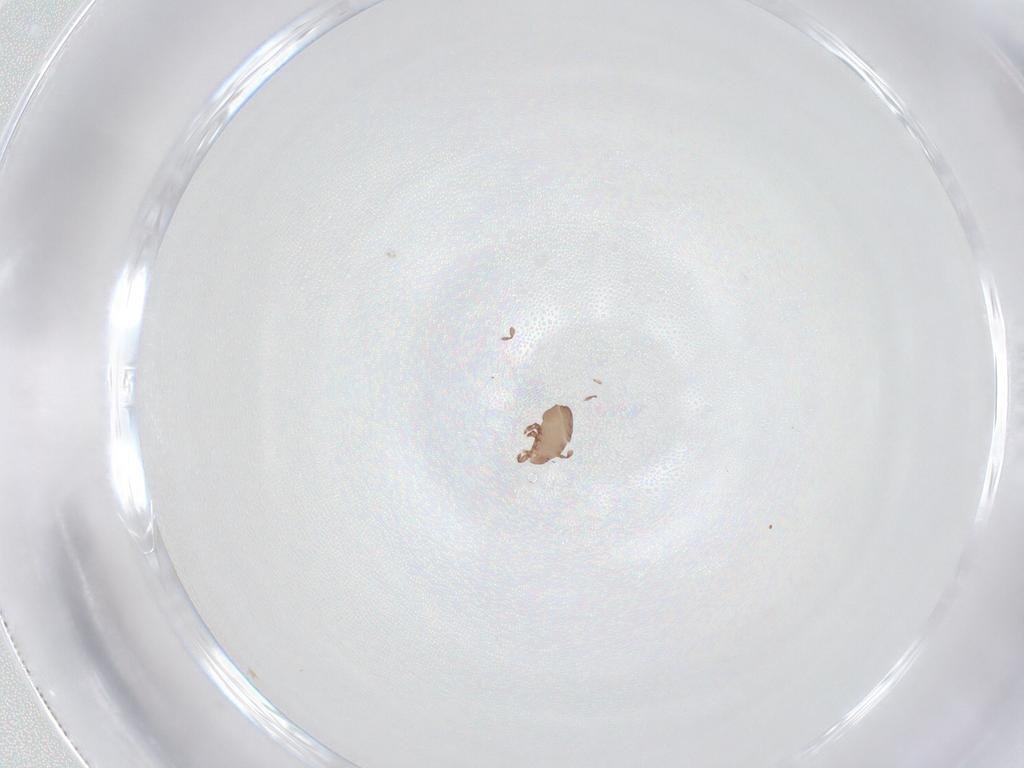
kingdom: Animalia
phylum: Arthropoda
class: Arachnida
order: Sarcoptiformes
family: Eremaeidae
